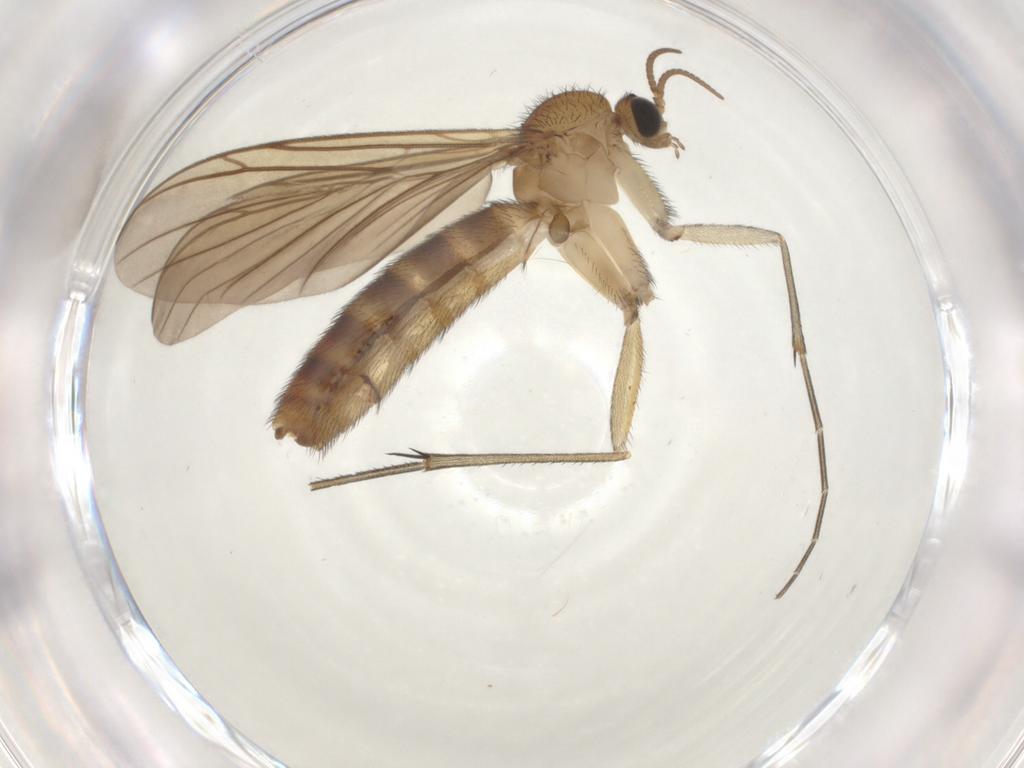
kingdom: Animalia
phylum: Arthropoda
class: Insecta
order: Diptera
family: Keroplatidae
